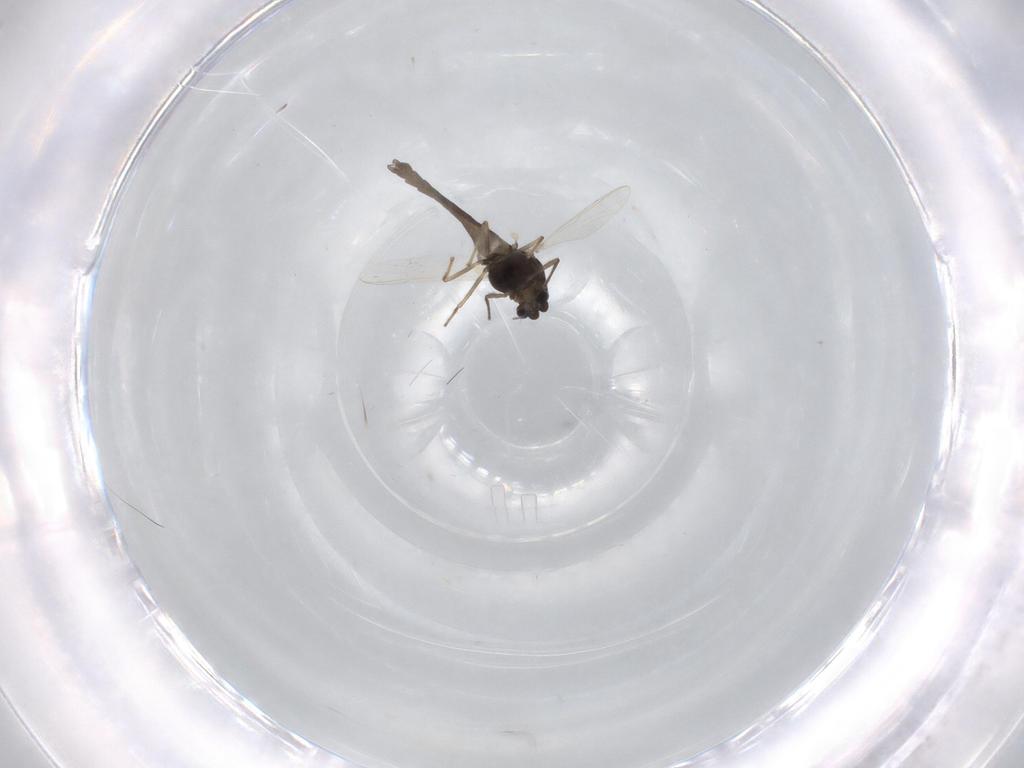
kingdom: Animalia
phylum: Arthropoda
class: Insecta
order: Diptera
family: Chironomidae
